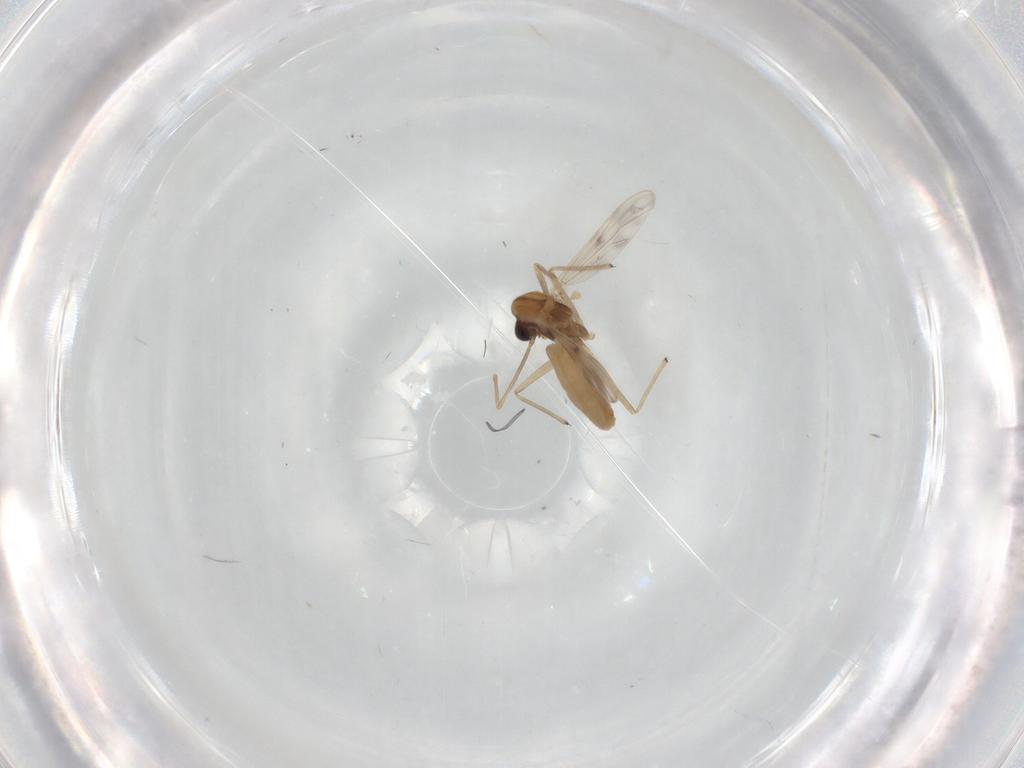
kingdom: Animalia
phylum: Arthropoda
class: Insecta
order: Diptera
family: Chironomidae
